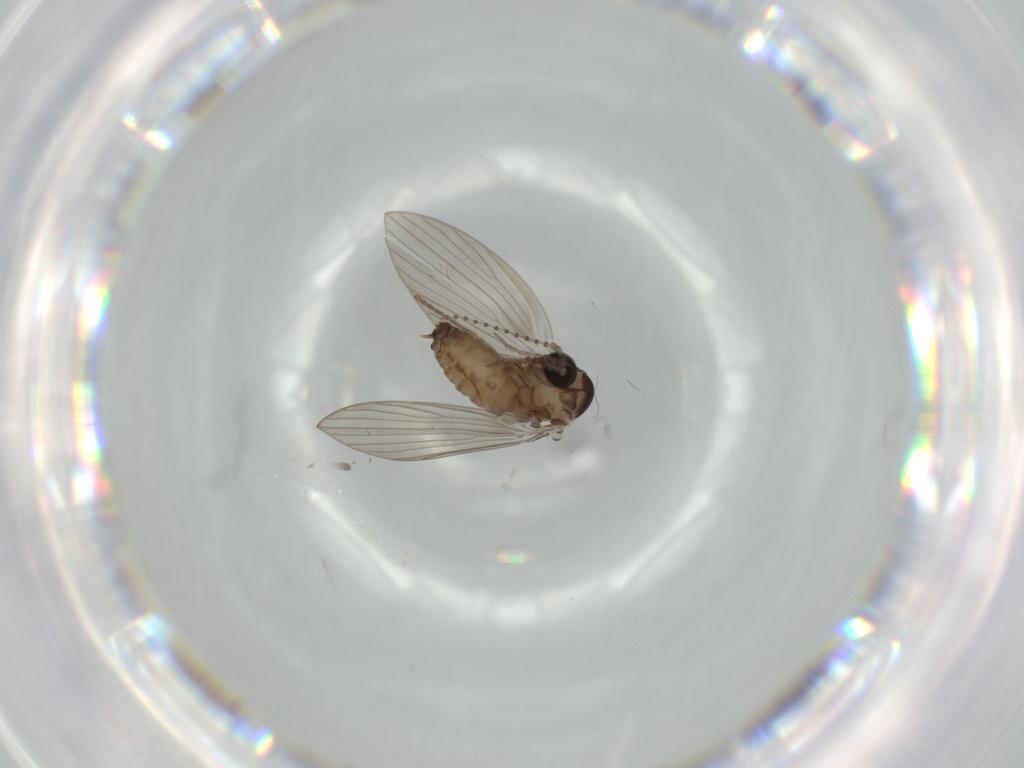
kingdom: Animalia
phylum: Arthropoda
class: Insecta
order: Diptera
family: Psychodidae
